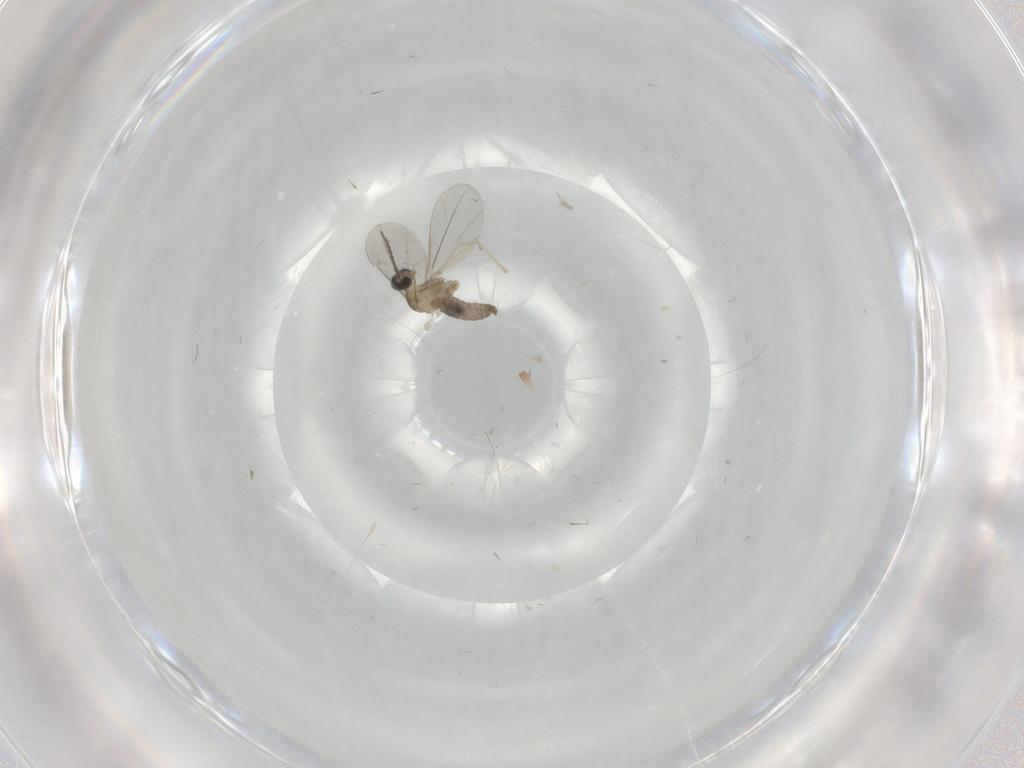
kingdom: Animalia
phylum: Arthropoda
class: Insecta
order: Diptera
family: Cecidomyiidae
